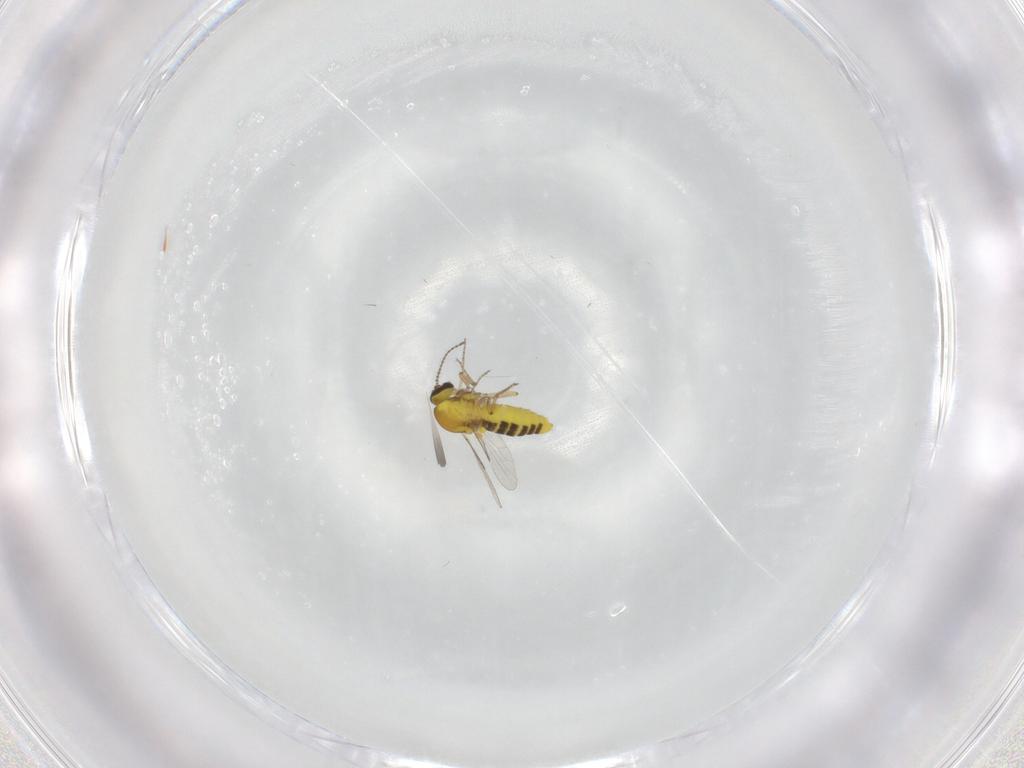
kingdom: Animalia
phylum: Arthropoda
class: Insecta
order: Diptera
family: Ceratopogonidae
